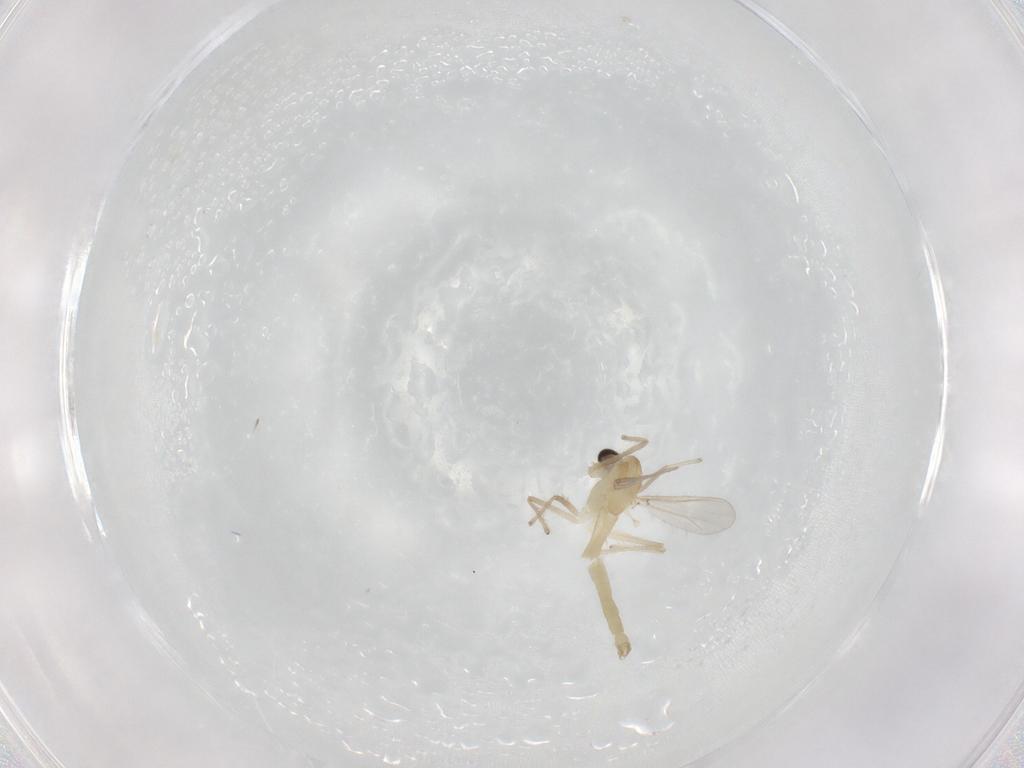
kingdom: Animalia
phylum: Arthropoda
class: Insecta
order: Diptera
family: Chironomidae
